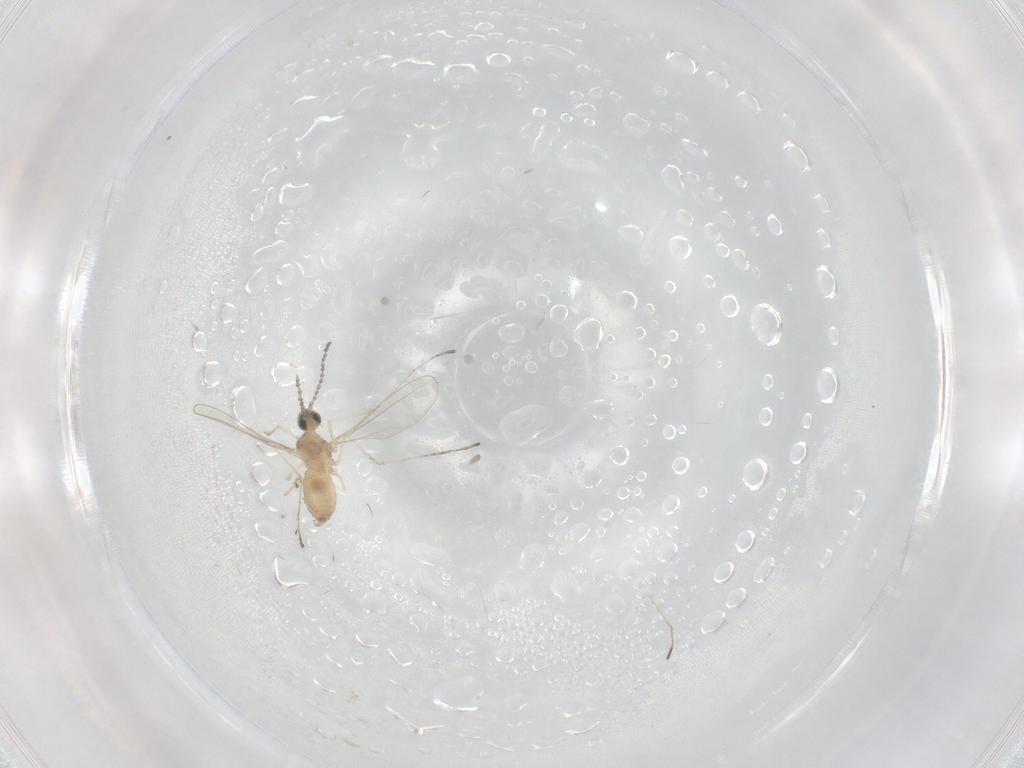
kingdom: Animalia
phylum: Arthropoda
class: Insecta
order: Diptera
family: Cecidomyiidae
